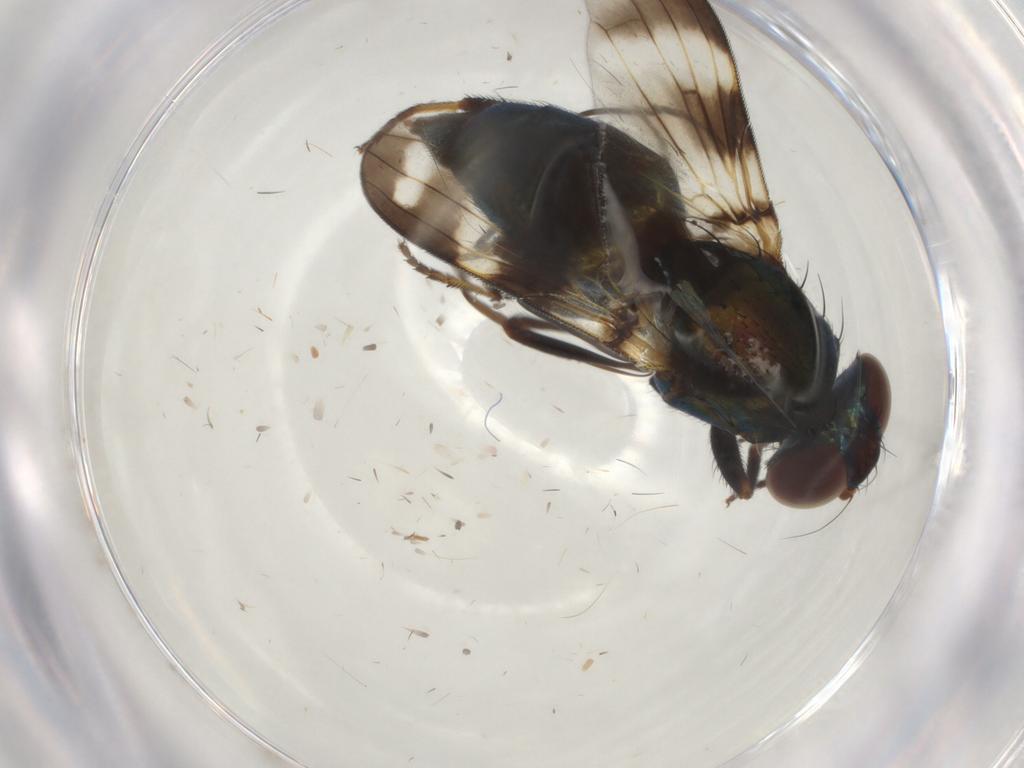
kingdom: Animalia
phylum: Arthropoda
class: Insecta
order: Diptera
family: Ulidiidae
